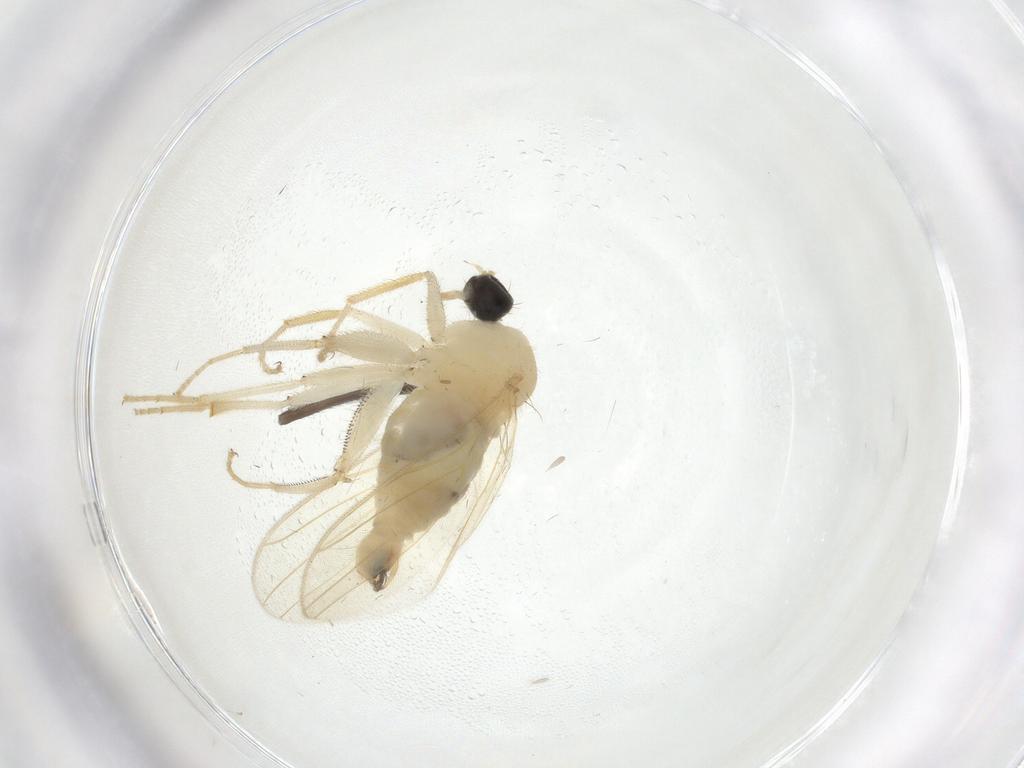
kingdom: Animalia
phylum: Arthropoda
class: Insecta
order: Diptera
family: Hybotidae
